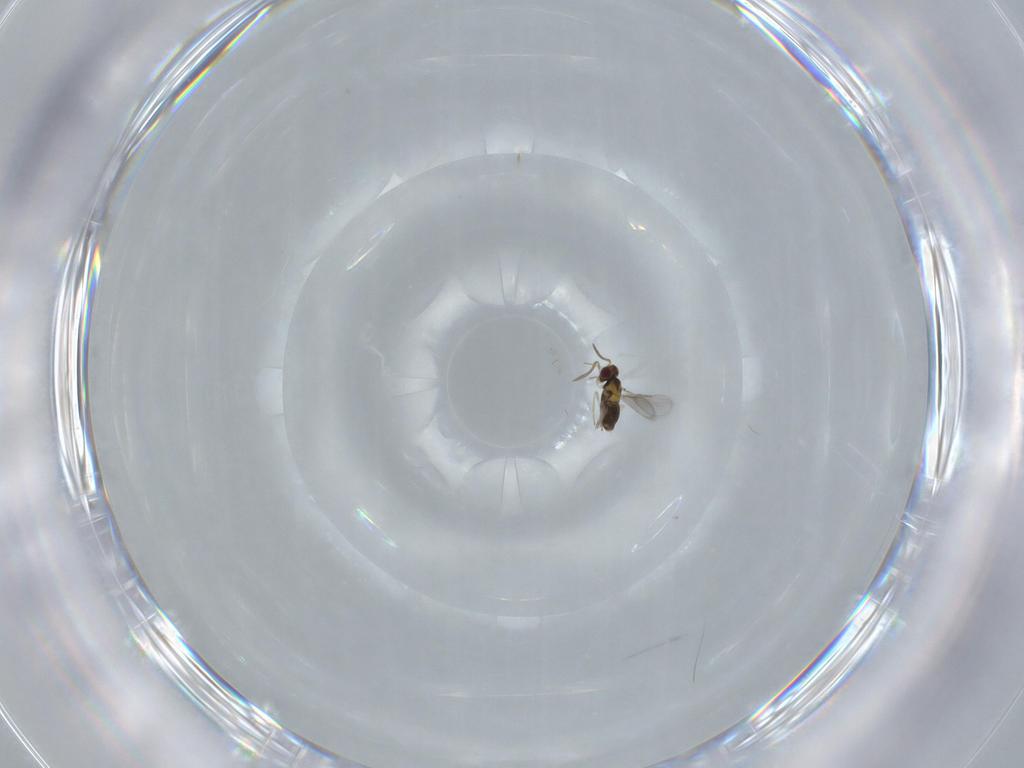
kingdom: Animalia
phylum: Arthropoda
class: Insecta
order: Hymenoptera
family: Aphelinidae
